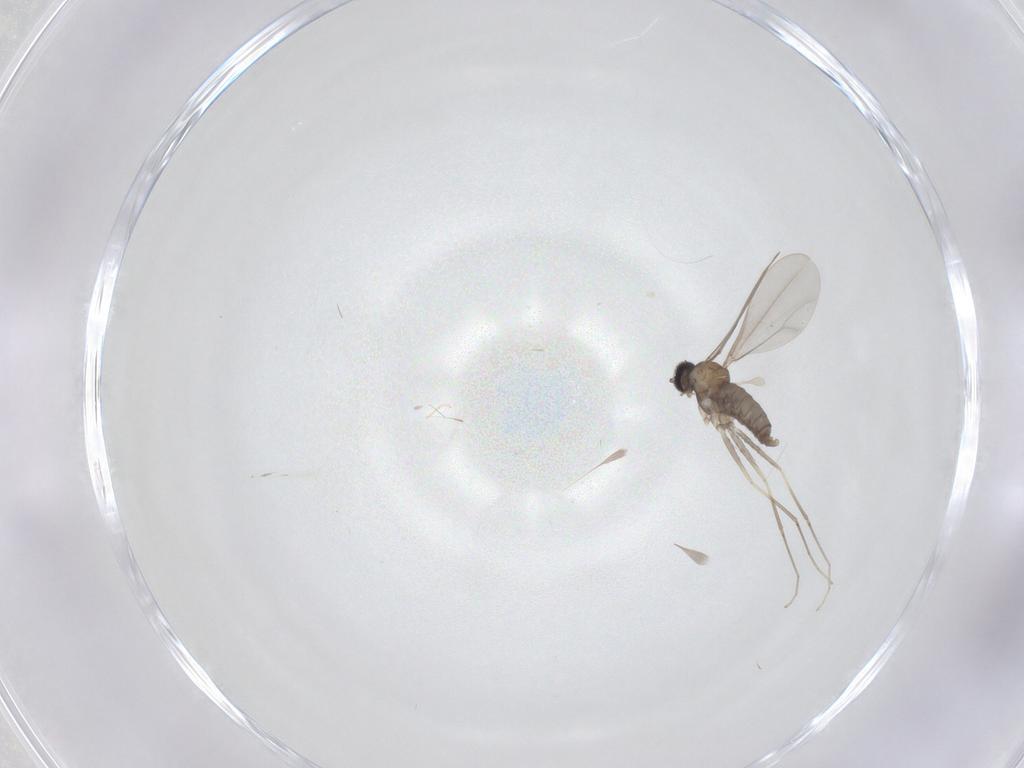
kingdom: Animalia
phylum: Arthropoda
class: Insecta
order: Diptera
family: Cecidomyiidae
